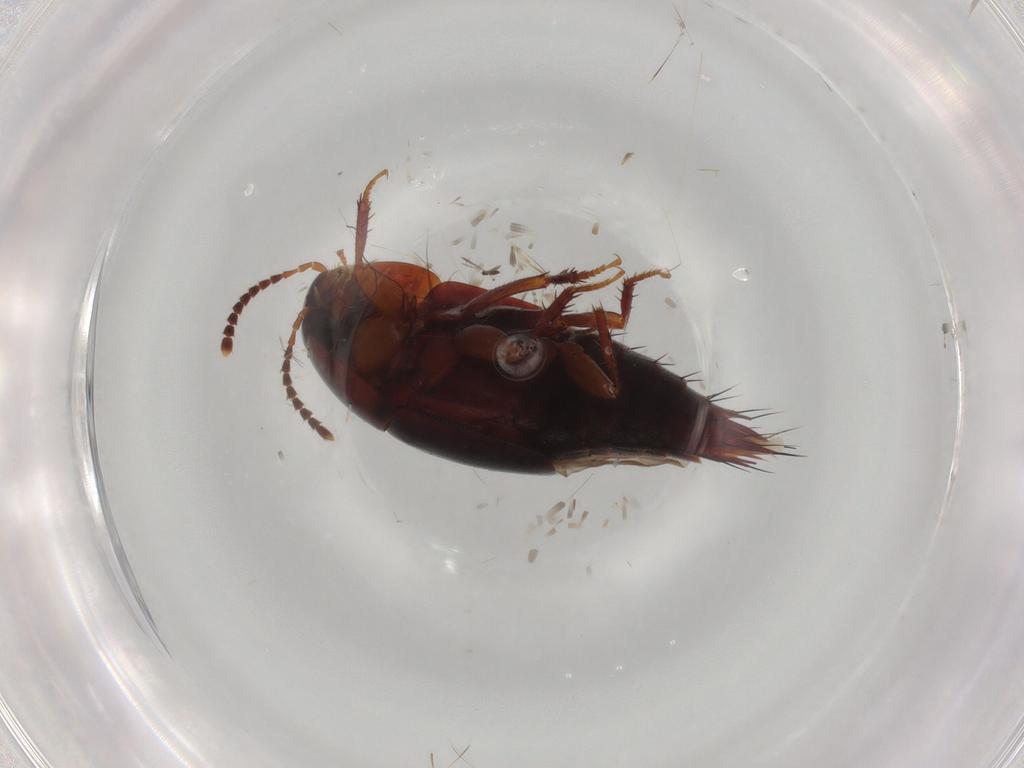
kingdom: Animalia
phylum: Arthropoda
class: Insecta
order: Coleoptera
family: Staphylinidae
